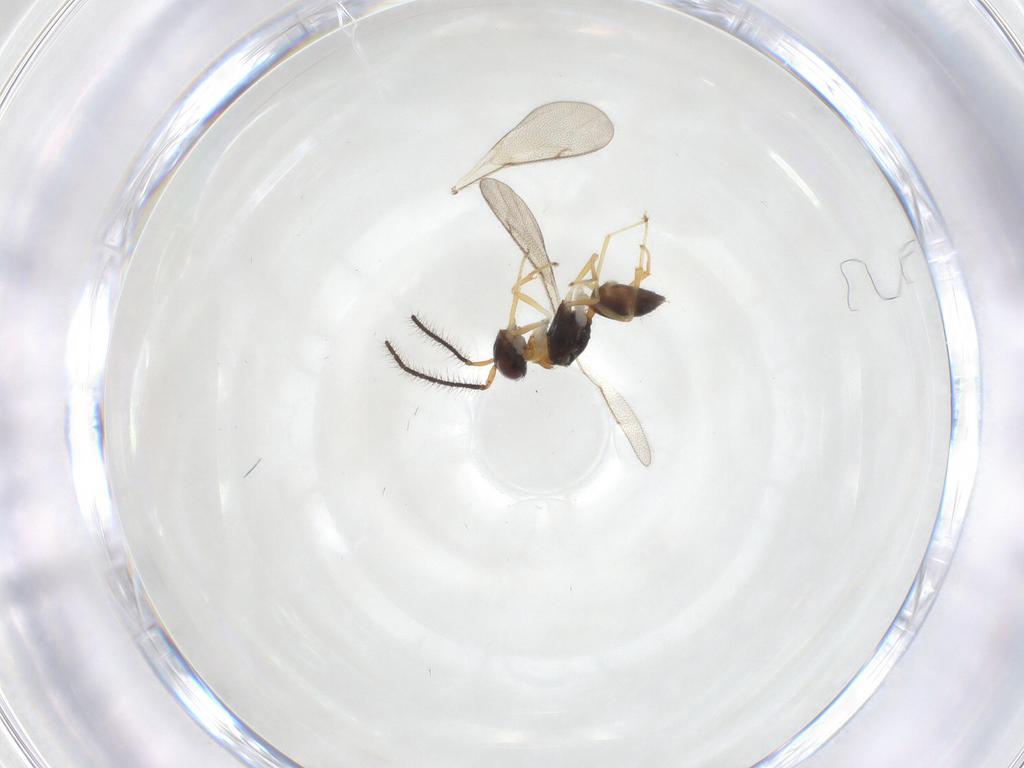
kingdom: Animalia
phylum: Arthropoda
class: Insecta
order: Hymenoptera
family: Diparidae
